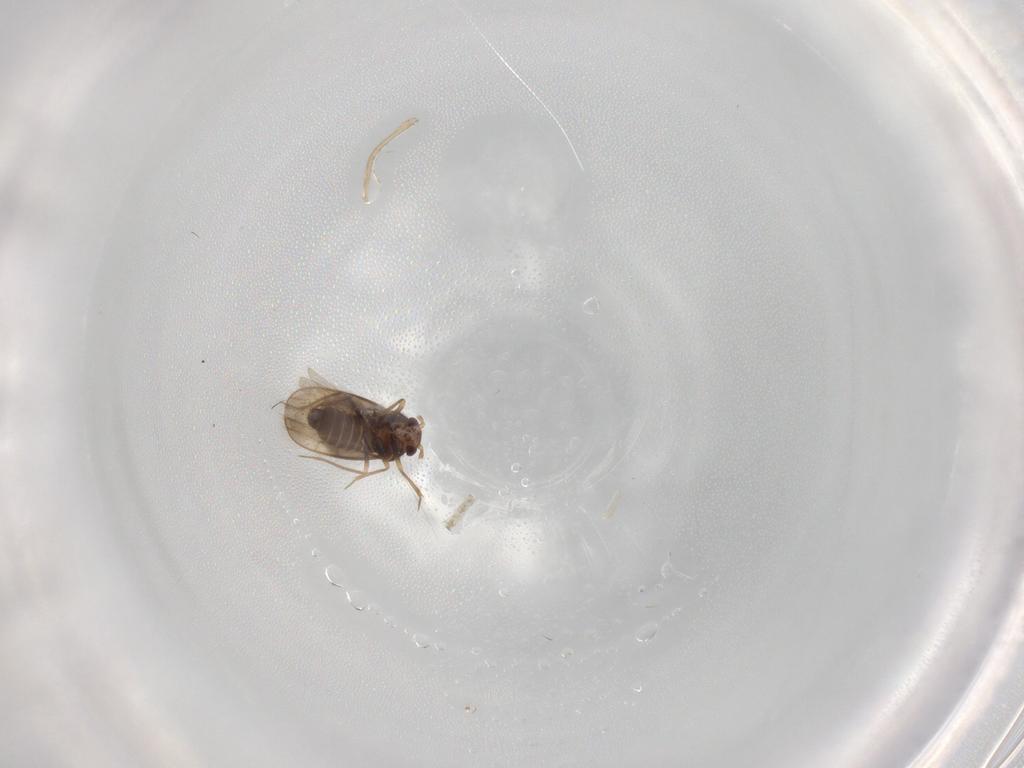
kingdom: Animalia
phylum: Arthropoda
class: Insecta
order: Hemiptera
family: Schizopteridae
